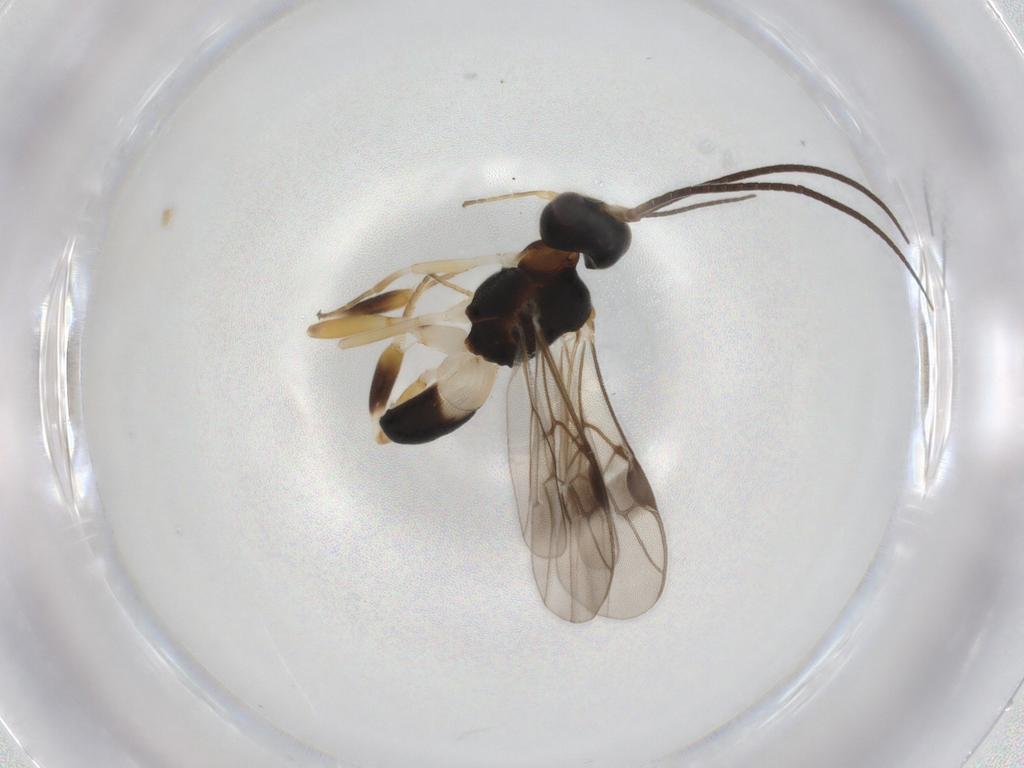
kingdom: Animalia
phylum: Arthropoda
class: Insecta
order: Hymenoptera
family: Braconidae
